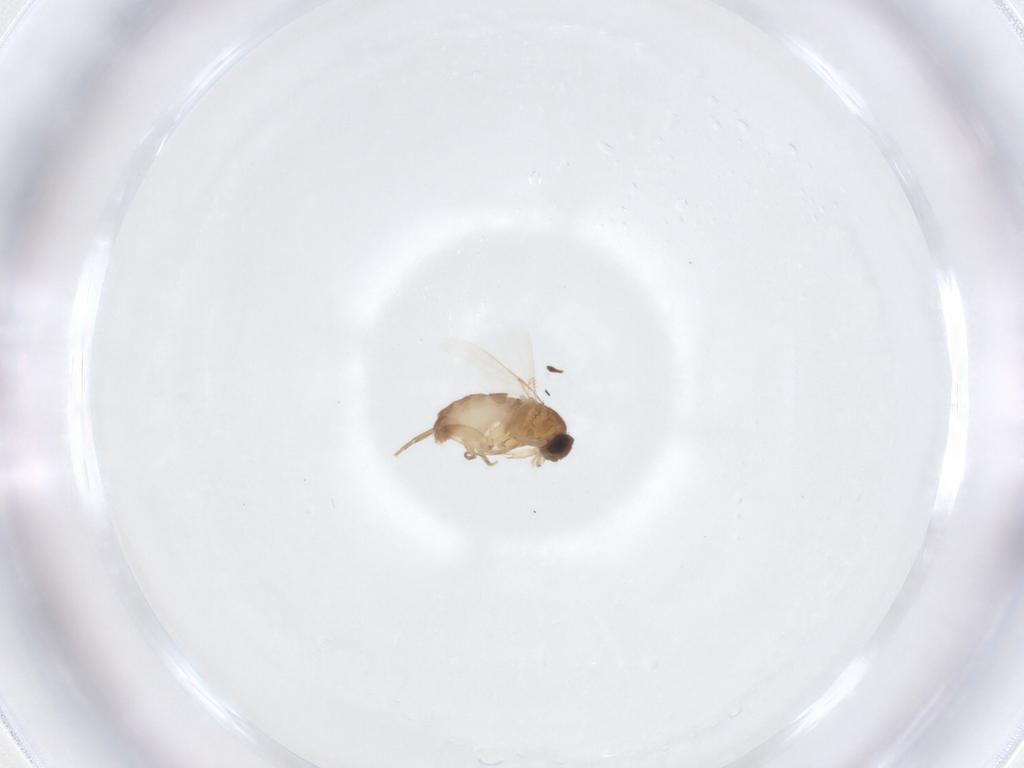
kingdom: Animalia
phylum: Arthropoda
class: Insecta
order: Diptera
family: Phoridae
